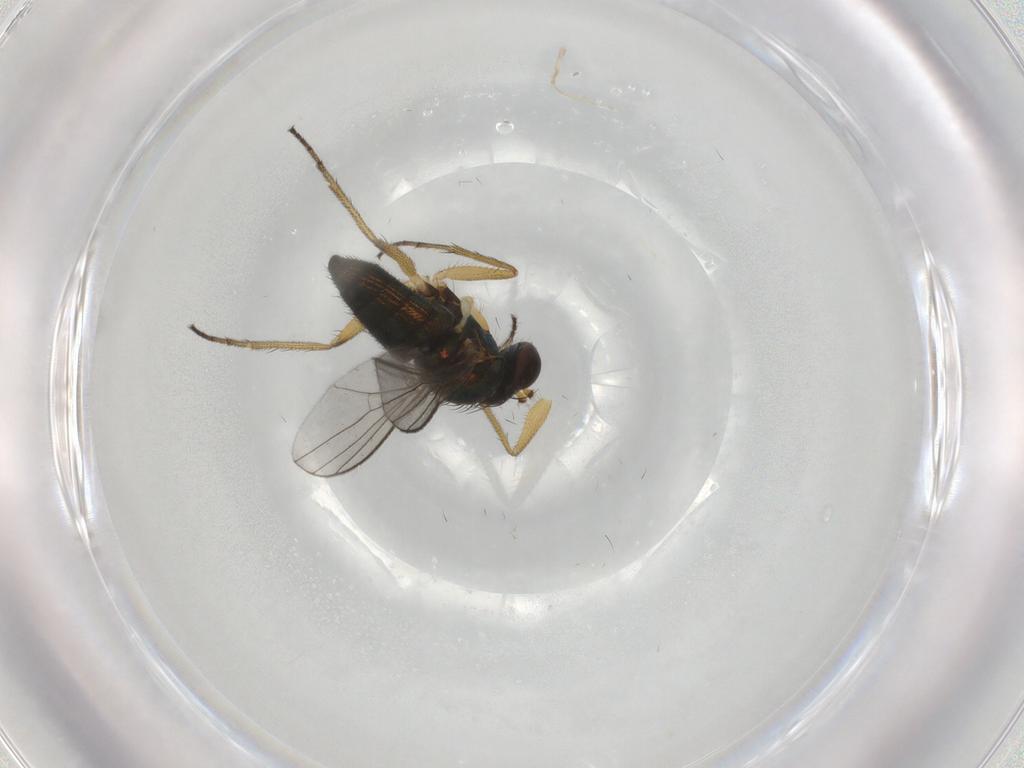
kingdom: Animalia
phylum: Arthropoda
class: Insecta
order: Diptera
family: Dolichopodidae
